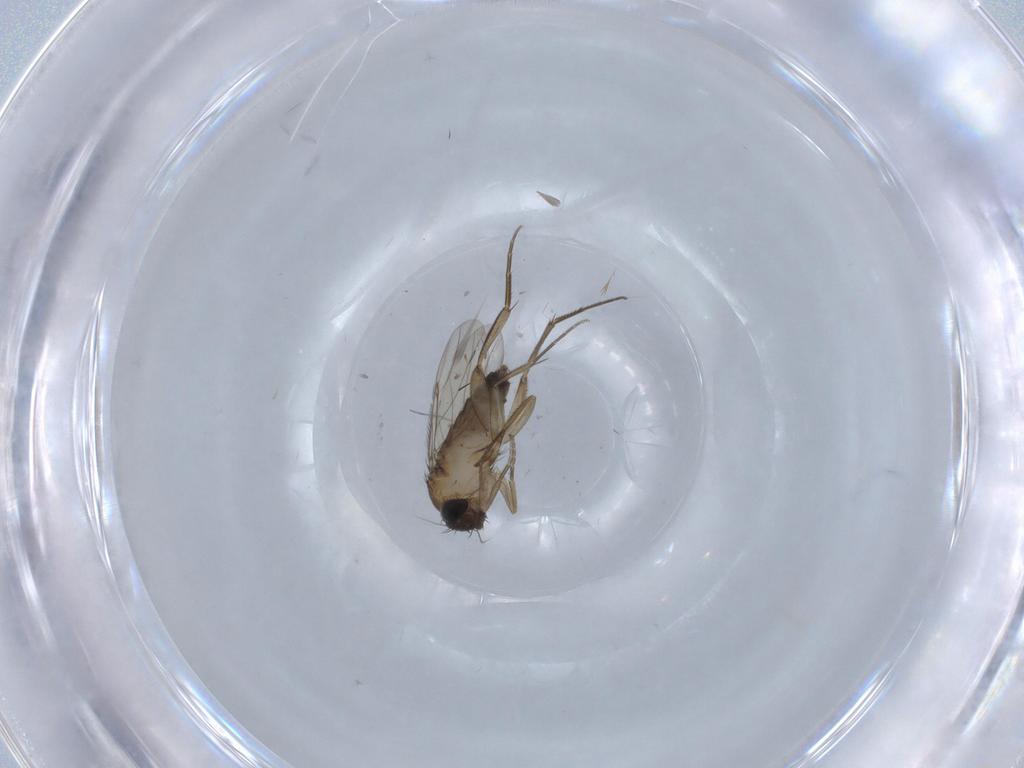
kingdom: Animalia
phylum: Arthropoda
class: Insecta
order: Diptera
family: Phoridae
